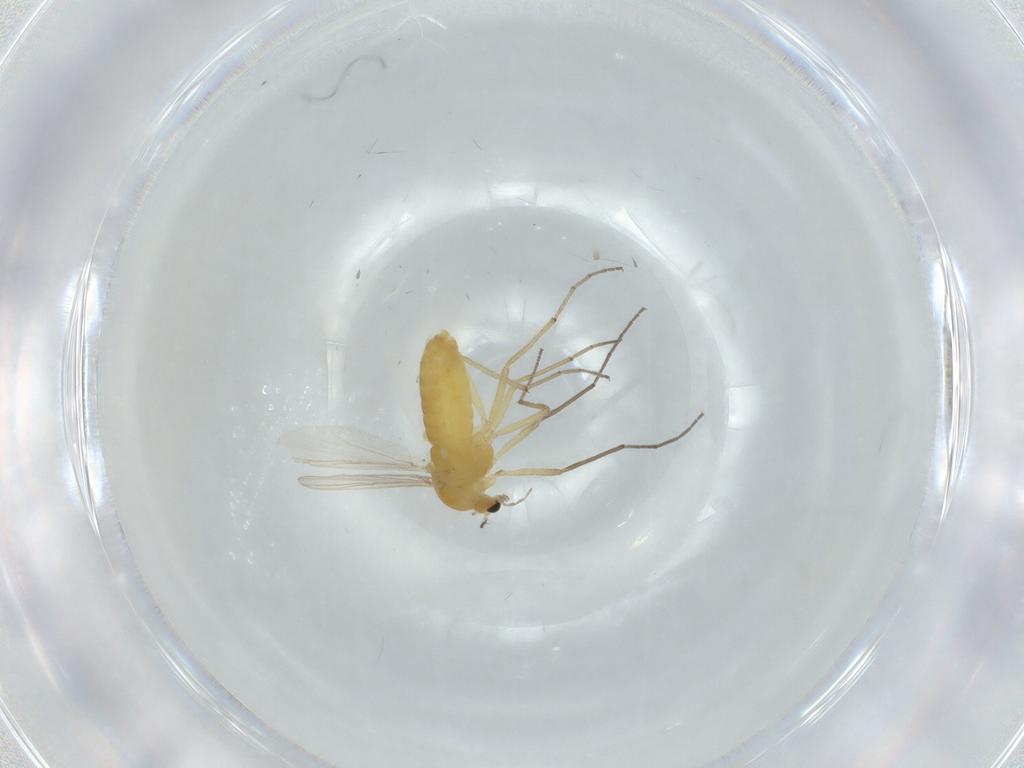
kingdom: Animalia
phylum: Arthropoda
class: Insecta
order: Diptera
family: Chironomidae
